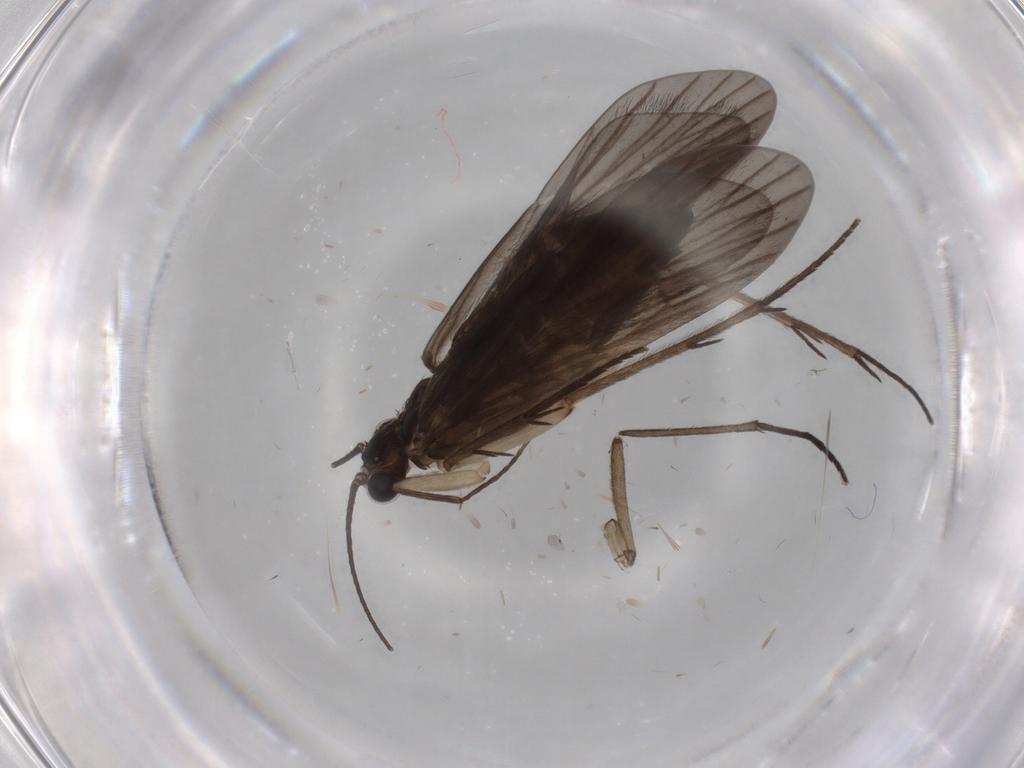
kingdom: Animalia
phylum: Arthropoda
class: Insecta
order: Trichoptera
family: Philopotamidae
